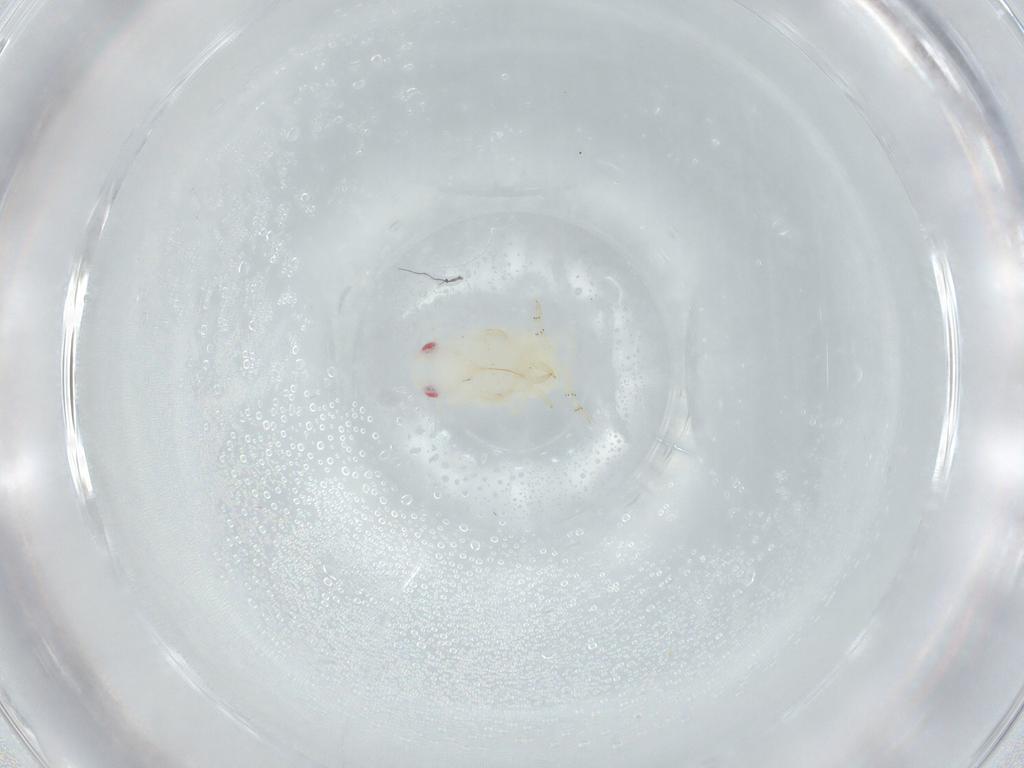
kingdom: Animalia
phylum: Arthropoda
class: Insecta
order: Hemiptera
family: Flatidae
